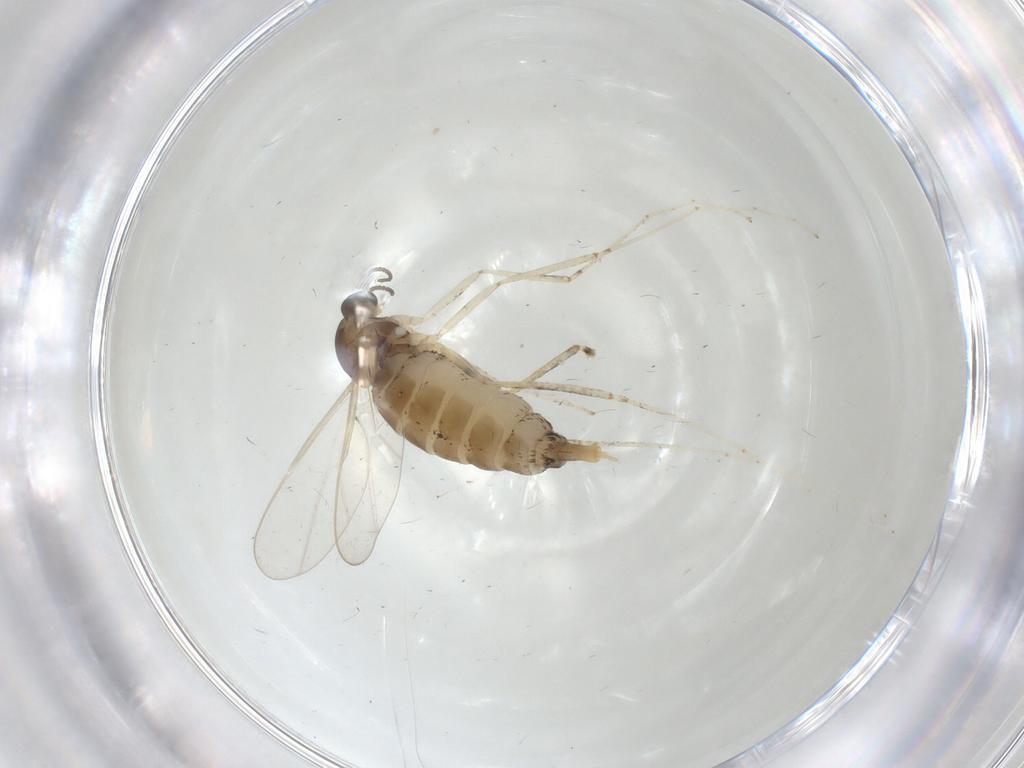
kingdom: Animalia
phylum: Arthropoda
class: Insecta
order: Diptera
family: Cecidomyiidae
